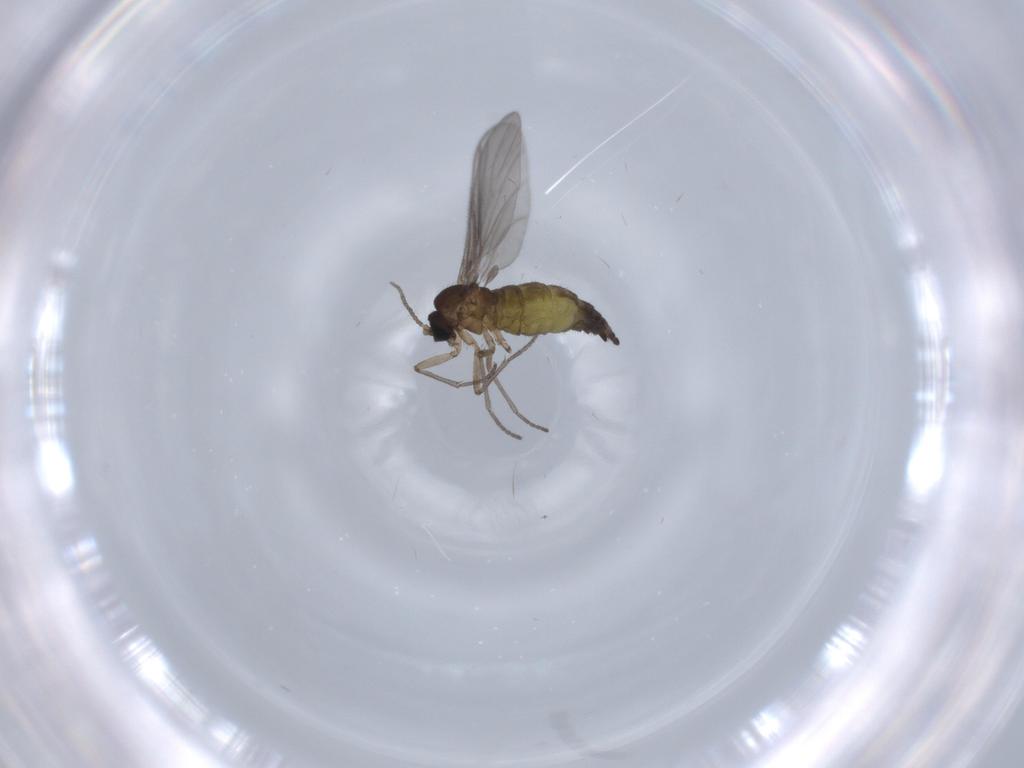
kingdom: Animalia
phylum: Arthropoda
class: Insecta
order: Diptera
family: Sciaridae
